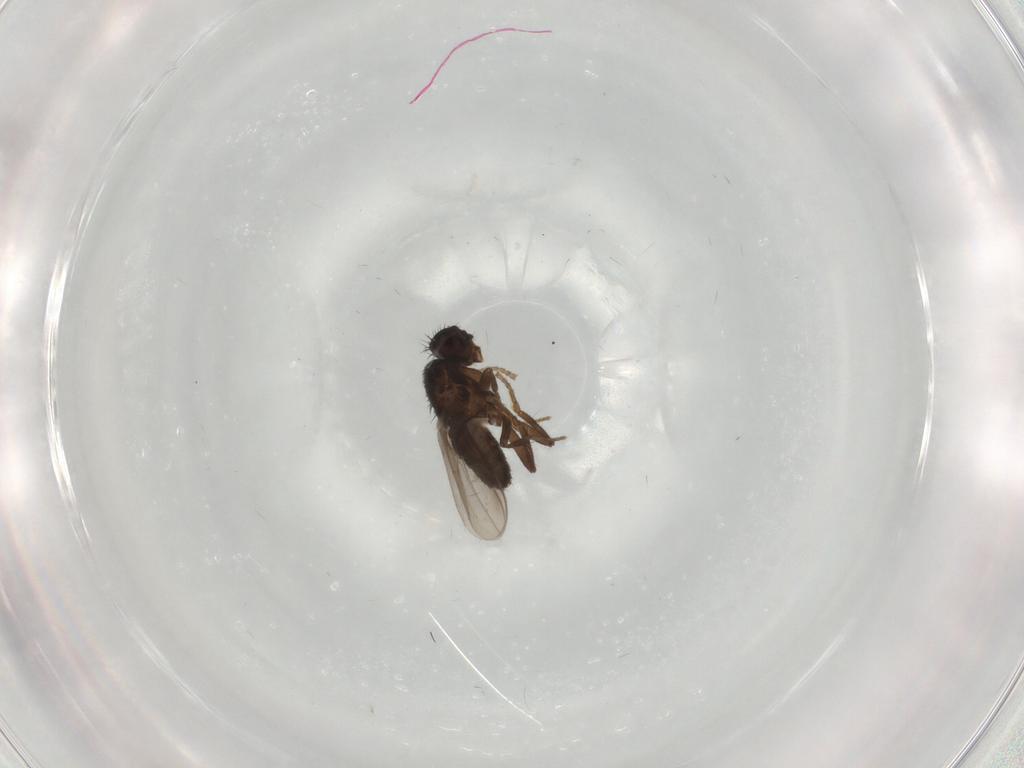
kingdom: Animalia
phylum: Arthropoda
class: Insecta
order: Diptera
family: Sphaeroceridae
